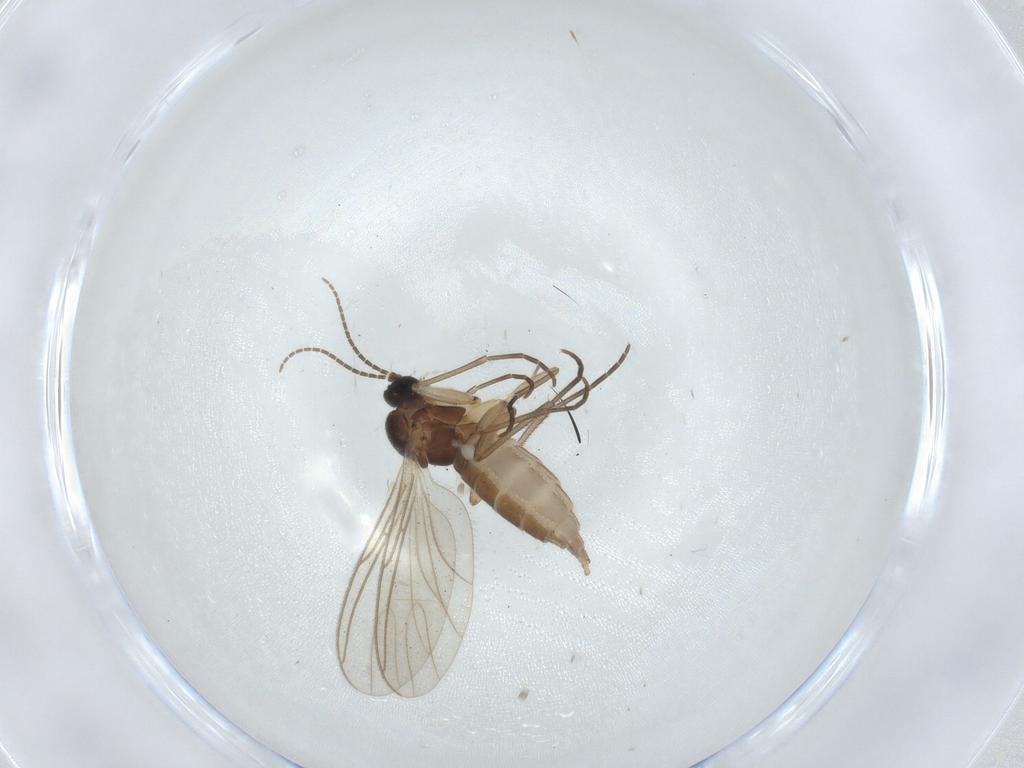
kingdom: Animalia
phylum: Arthropoda
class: Insecta
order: Diptera
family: Sciaridae
